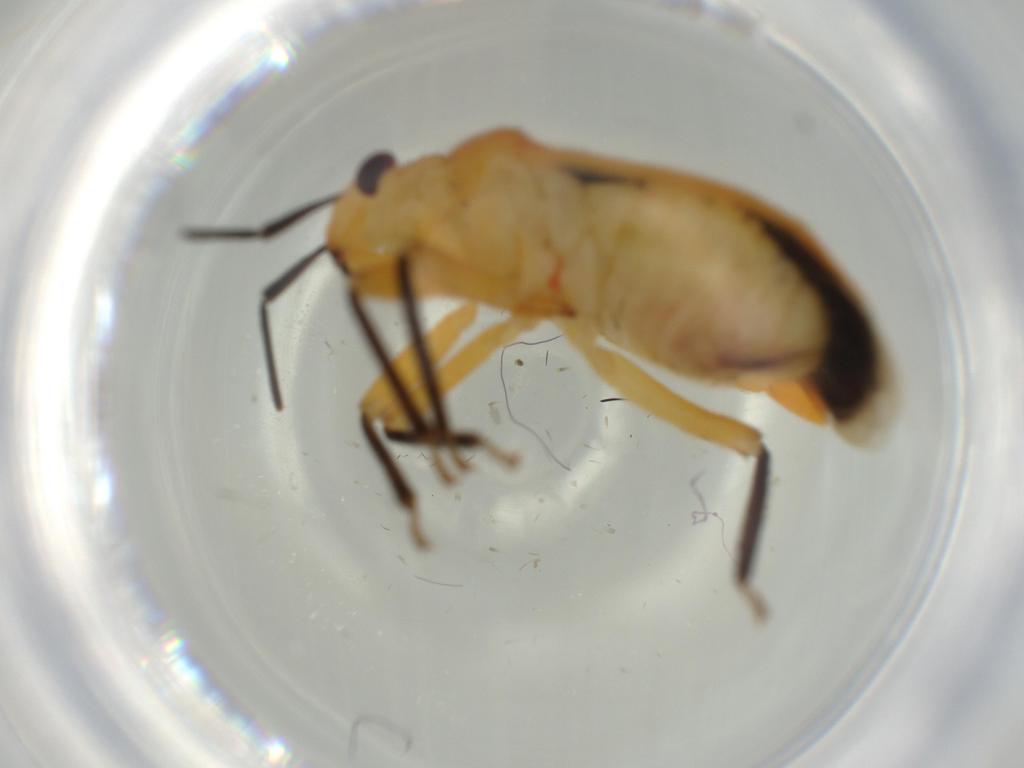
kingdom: Animalia
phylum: Arthropoda
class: Insecta
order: Hemiptera
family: Miridae
